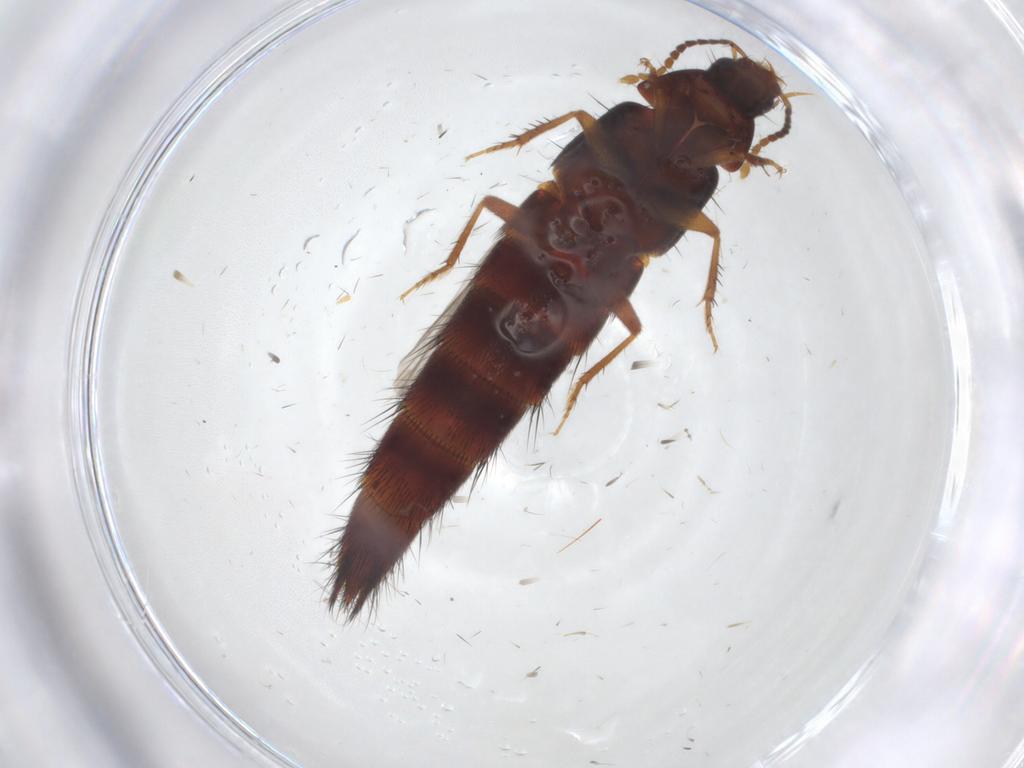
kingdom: Animalia
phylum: Arthropoda
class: Insecta
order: Coleoptera
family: Staphylinidae
